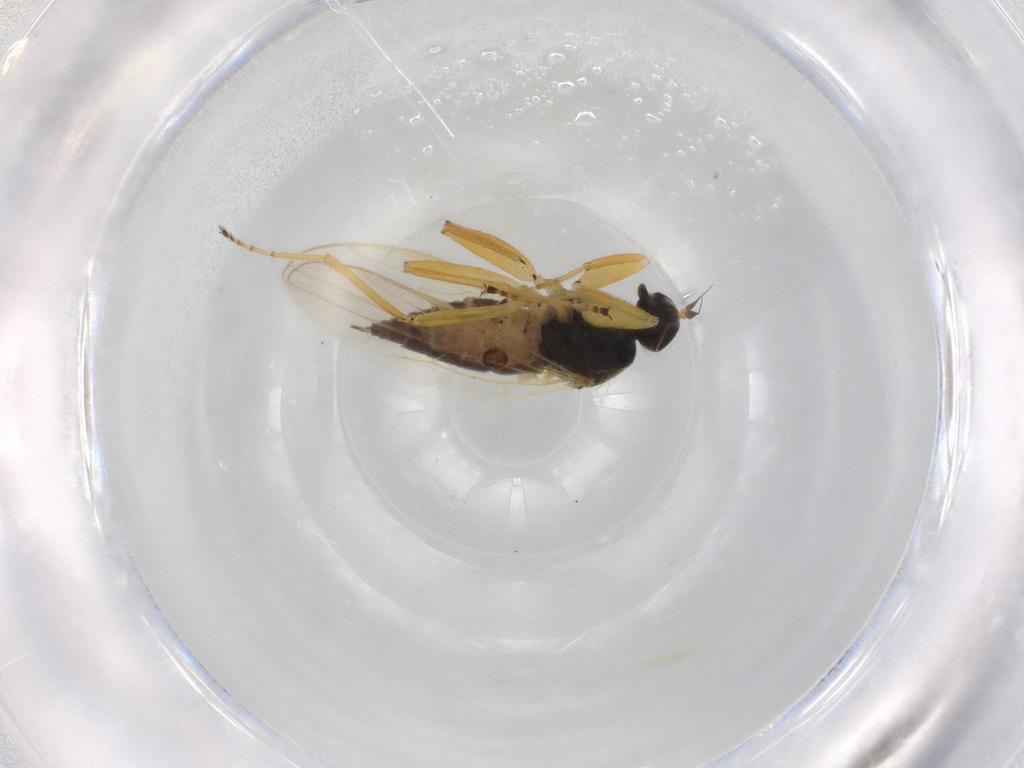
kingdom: Animalia
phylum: Arthropoda
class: Insecta
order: Diptera
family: Hybotidae
